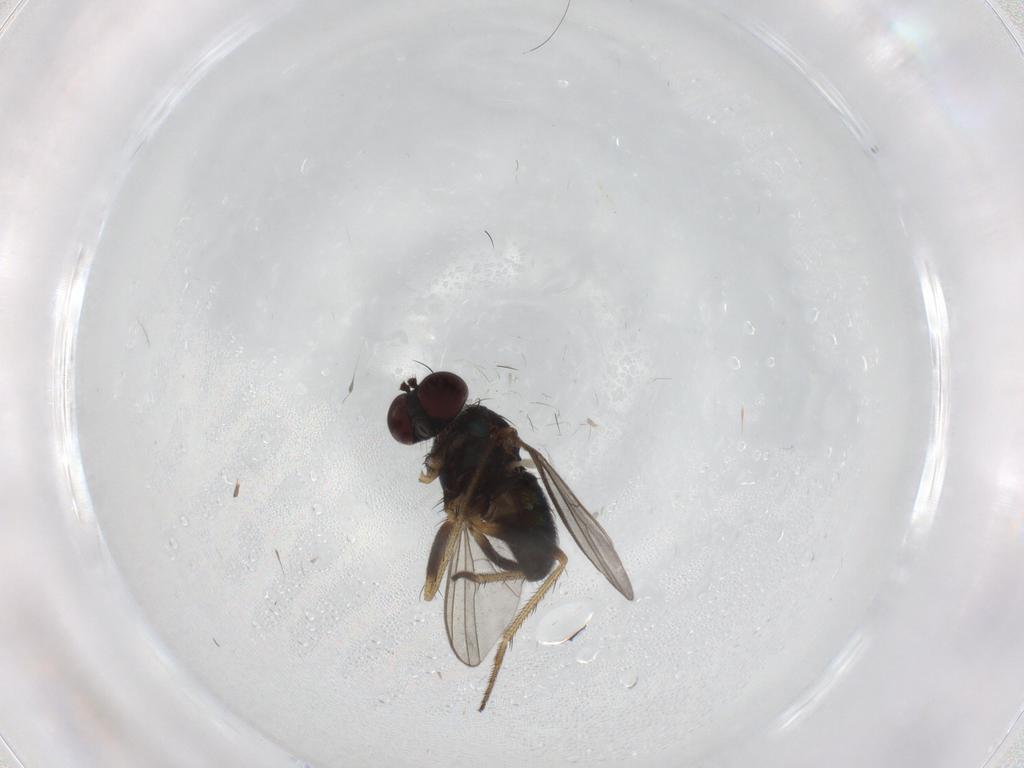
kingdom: Animalia
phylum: Arthropoda
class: Insecta
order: Diptera
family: Dolichopodidae
